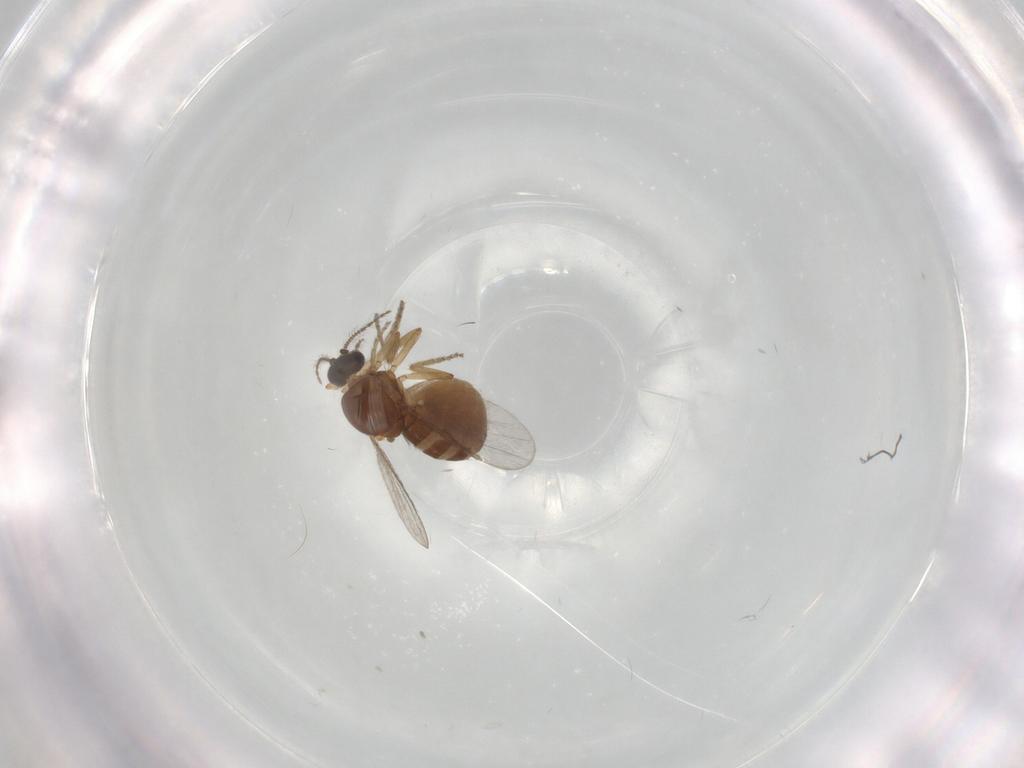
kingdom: Animalia
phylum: Arthropoda
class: Insecta
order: Diptera
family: Ceratopogonidae
